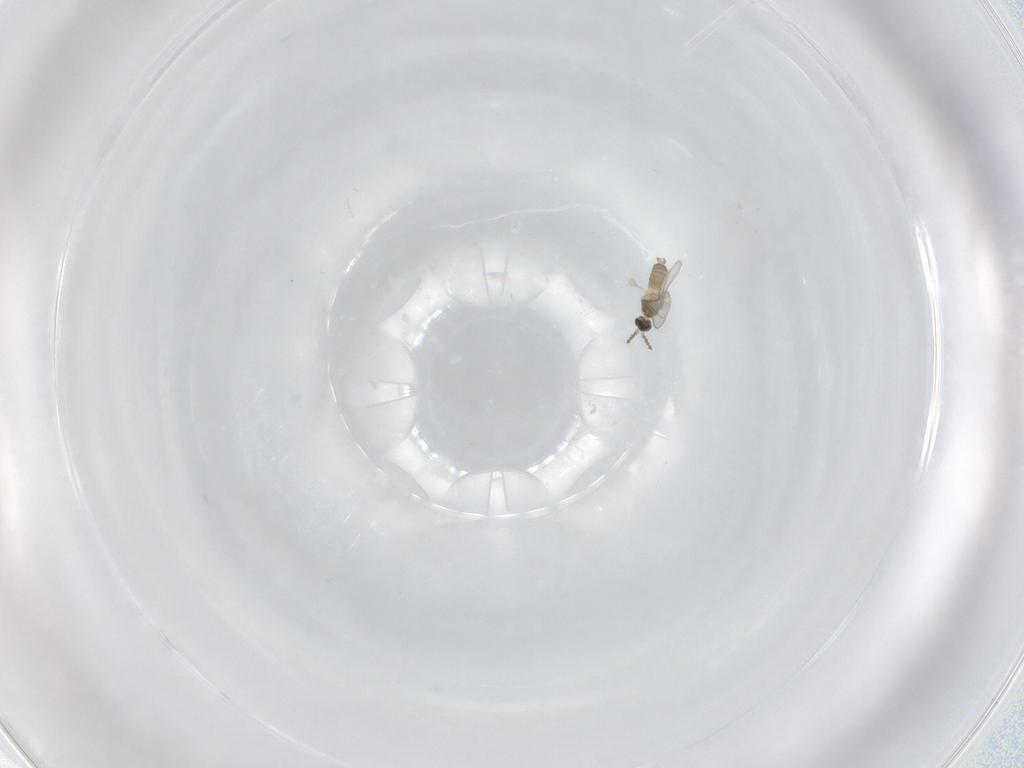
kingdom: Animalia
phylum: Arthropoda
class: Insecta
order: Diptera
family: Cecidomyiidae
